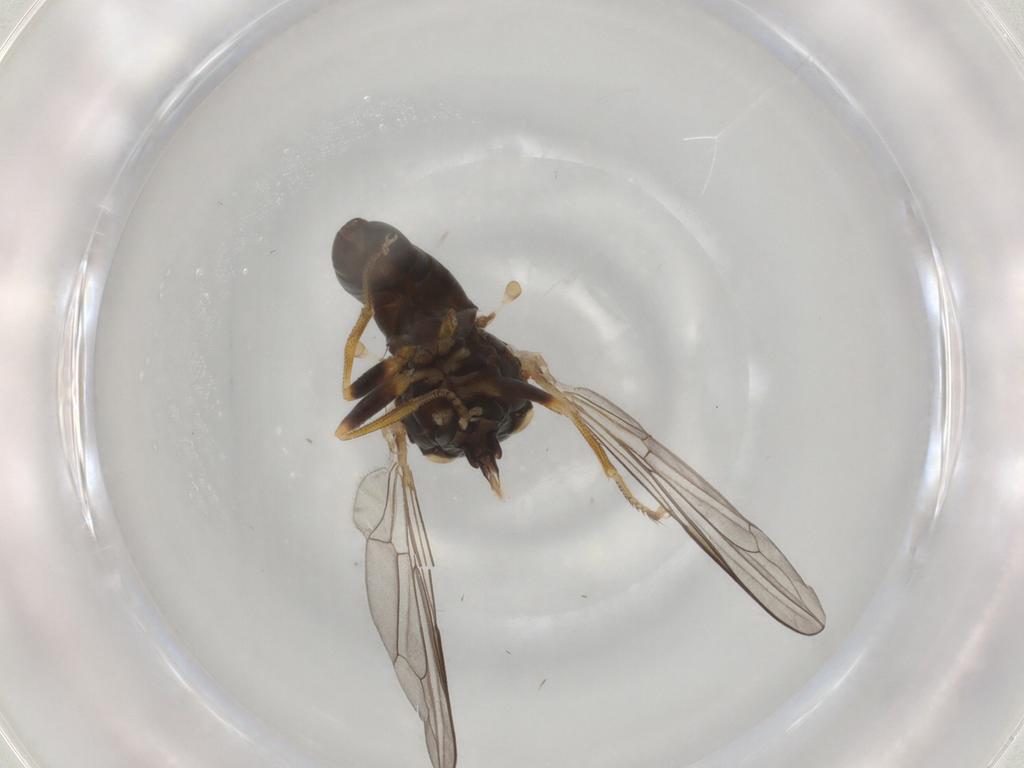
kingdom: Animalia
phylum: Arthropoda
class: Insecta
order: Diptera
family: Pipunculidae
